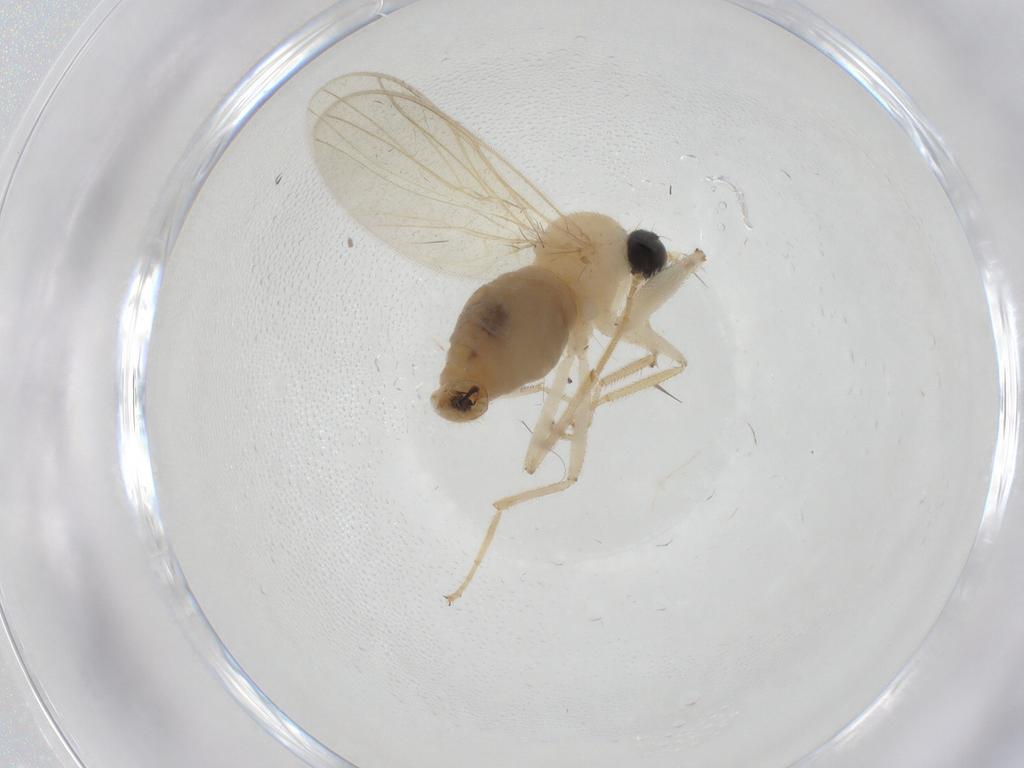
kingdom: Animalia
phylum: Arthropoda
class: Insecta
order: Diptera
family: Hybotidae
